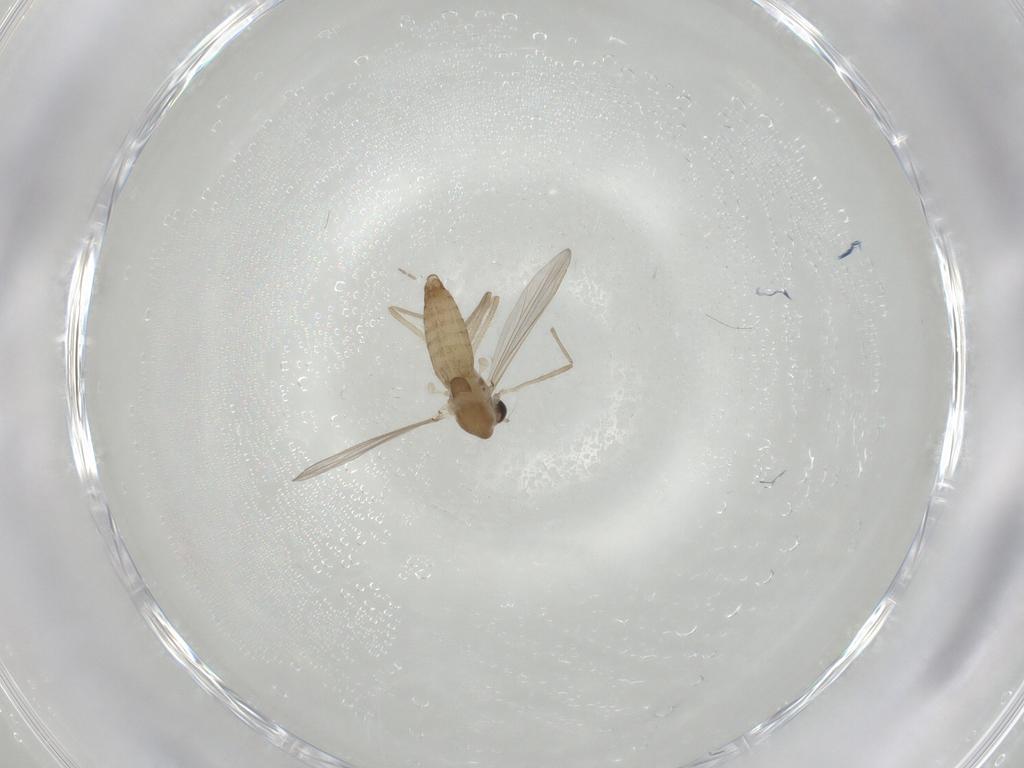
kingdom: Animalia
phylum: Arthropoda
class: Insecta
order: Diptera
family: Chironomidae
